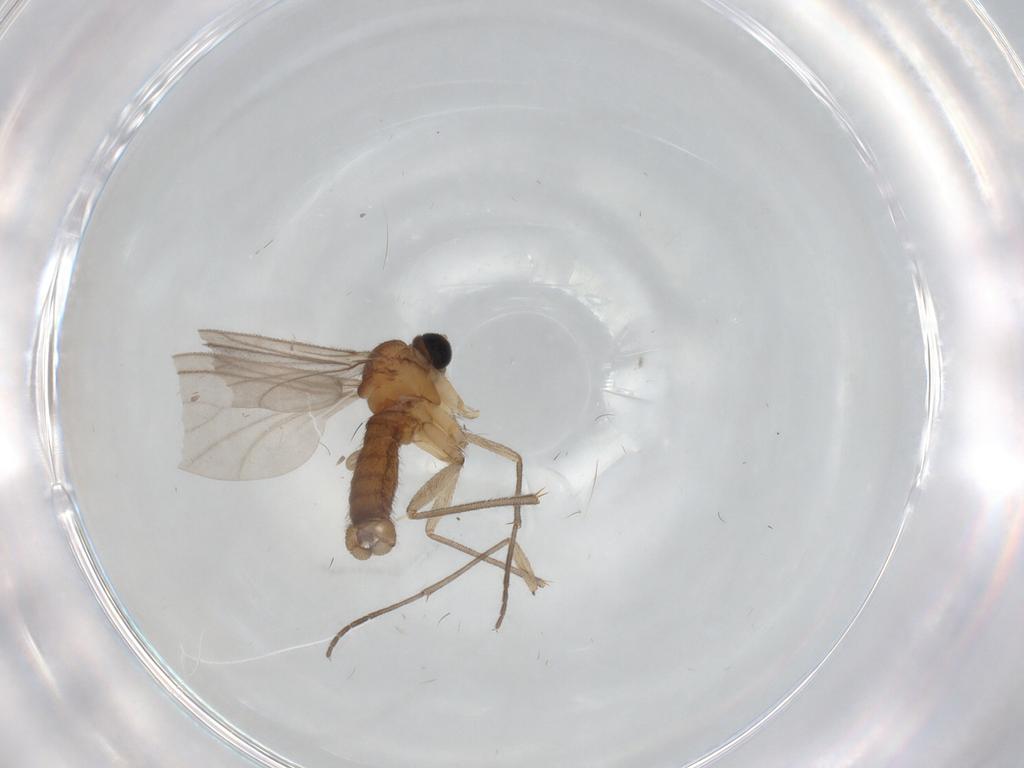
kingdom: Animalia
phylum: Arthropoda
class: Insecta
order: Diptera
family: Sciaridae
